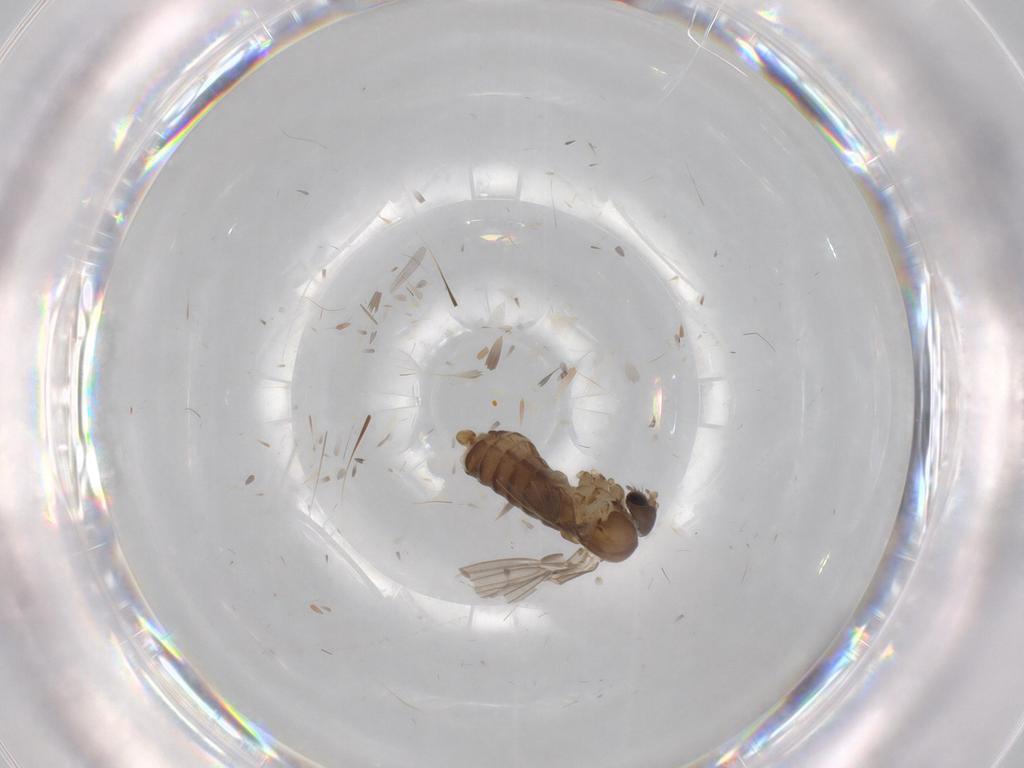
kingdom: Animalia
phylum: Arthropoda
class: Insecta
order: Diptera
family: Psychodidae
